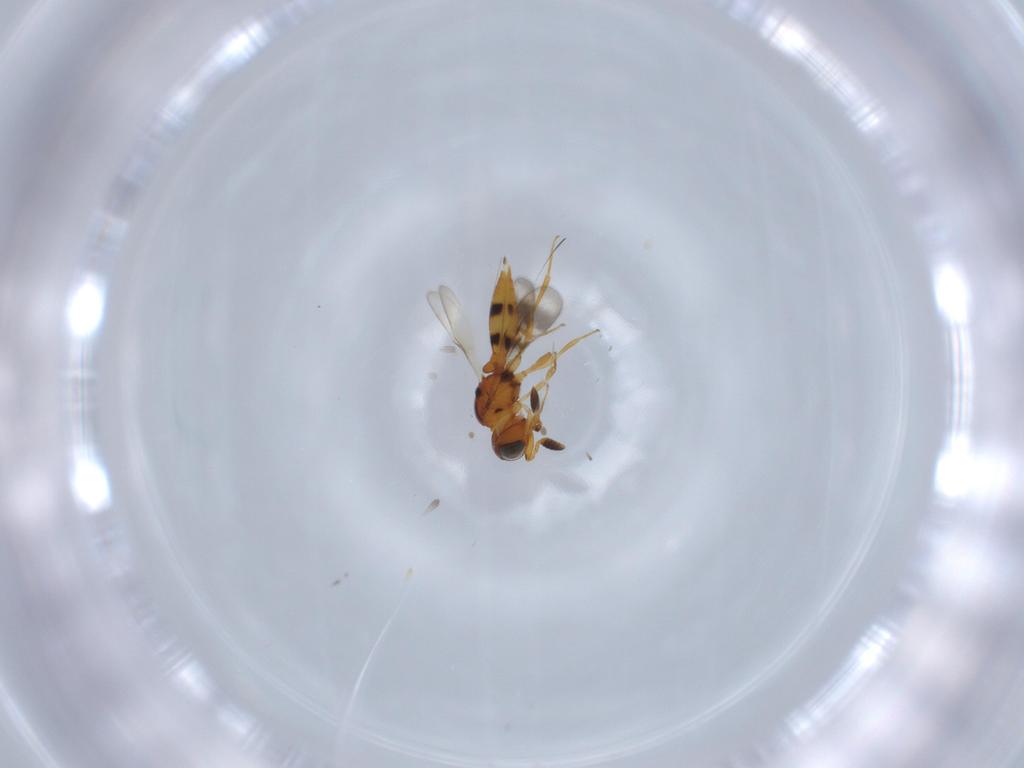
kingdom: Animalia
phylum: Arthropoda
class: Insecta
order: Hymenoptera
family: Scelionidae
